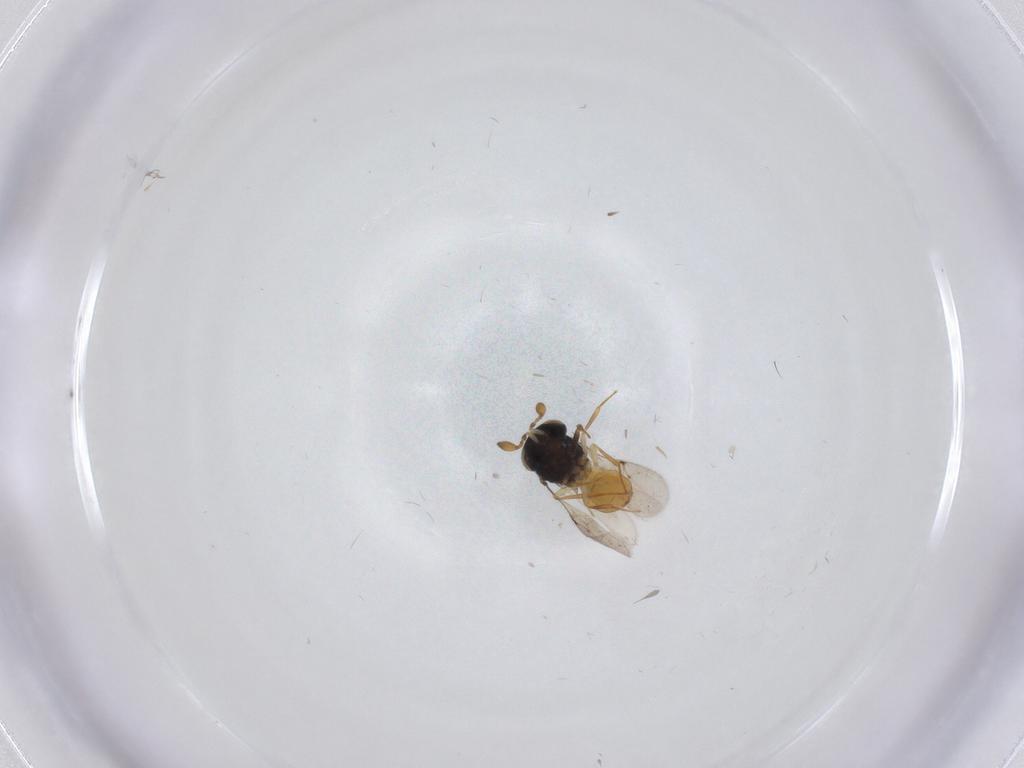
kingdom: Animalia
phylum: Arthropoda
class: Insecta
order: Hymenoptera
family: Scelionidae
